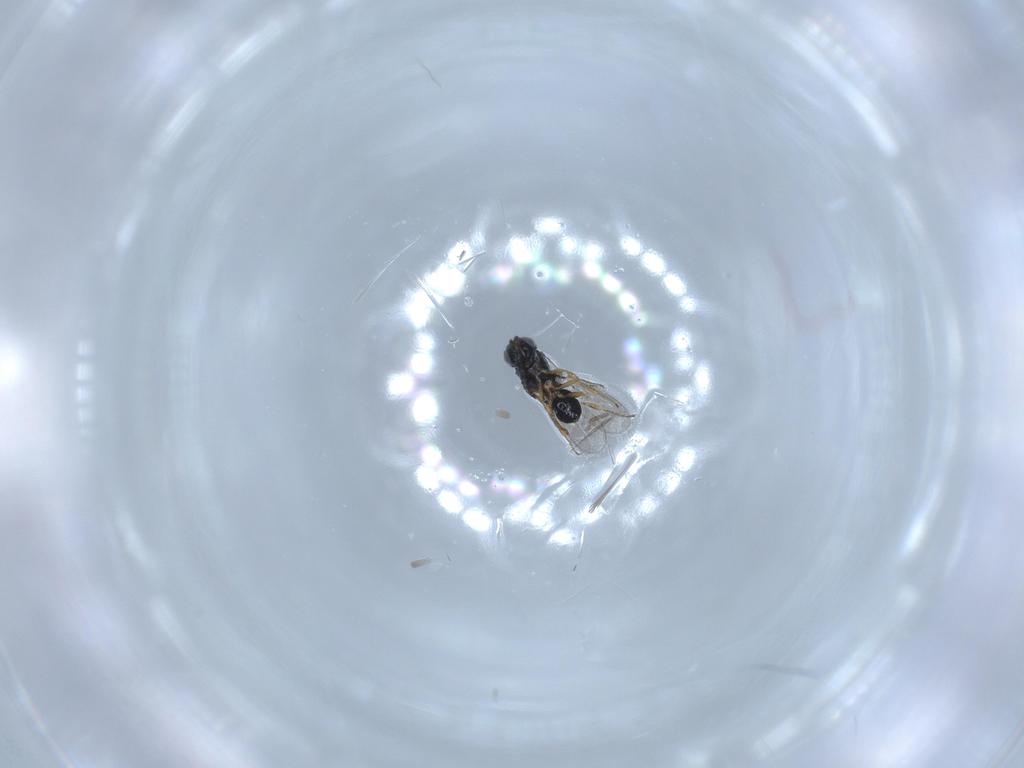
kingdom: Animalia
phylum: Arthropoda
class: Insecta
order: Hymenoptera
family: Scelionidae
